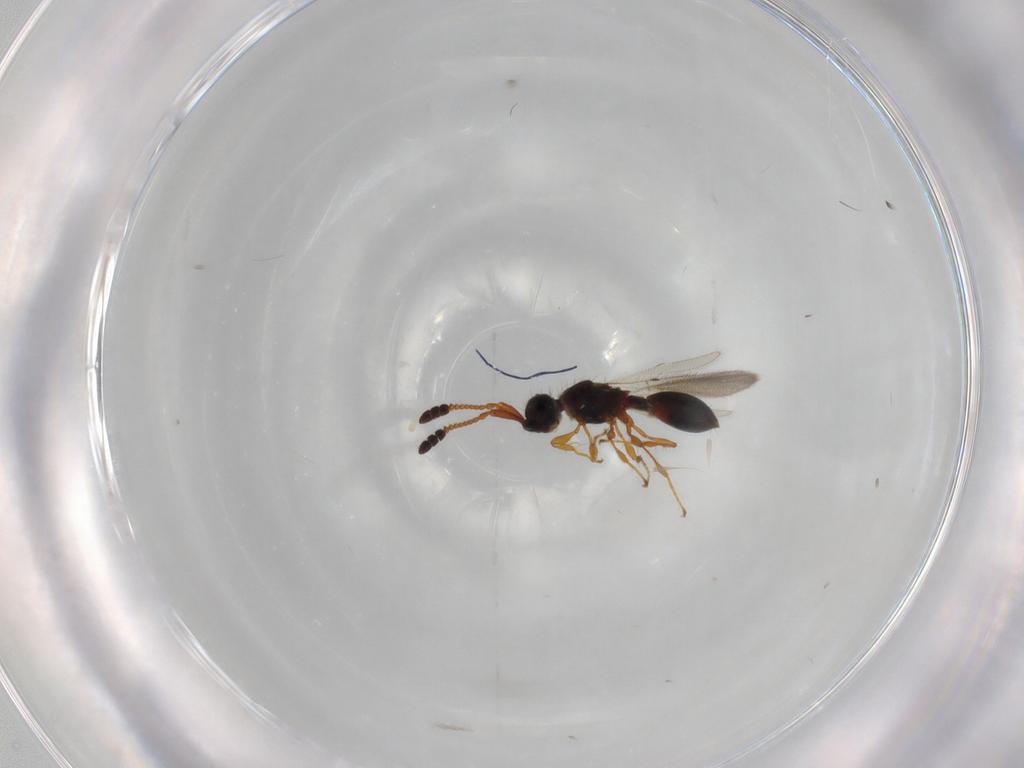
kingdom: Animalia
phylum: Arthropoda
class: Insecta
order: Hymenoptera
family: Diapriidae
